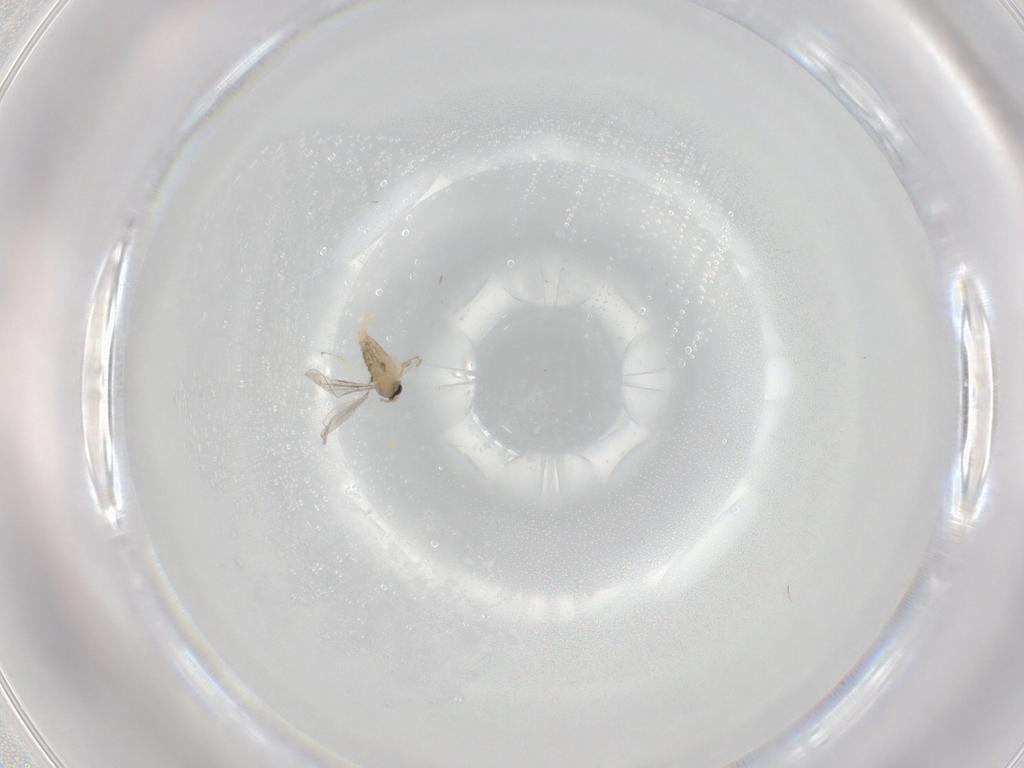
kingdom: Animalia
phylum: Arthropoda
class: Insecta
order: Diptera
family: Cecidomyiidae
